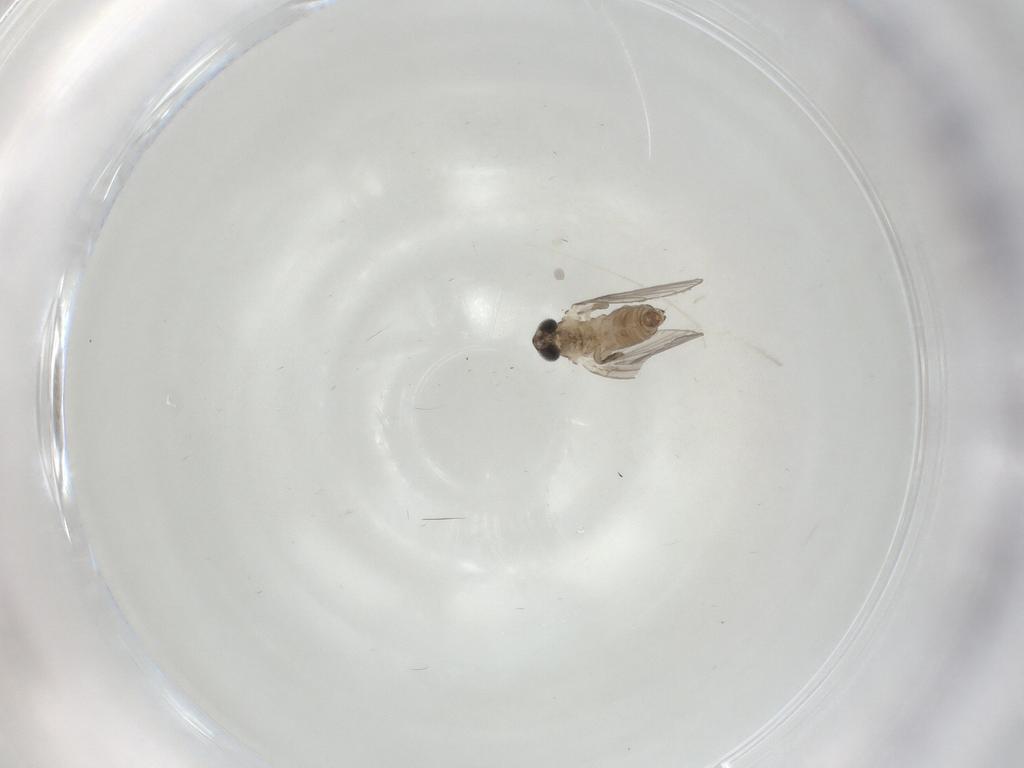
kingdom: Animalia
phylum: Arthropoda
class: Insecta
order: Diptera
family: Psychodidae
